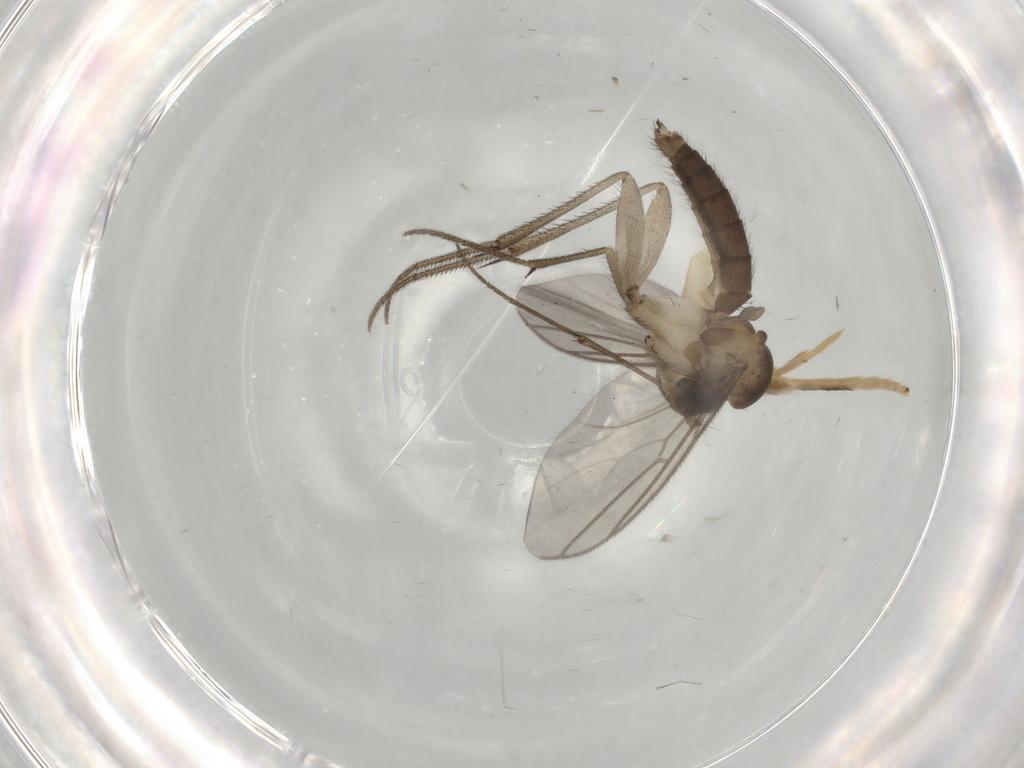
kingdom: Animalia
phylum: Arthropoda
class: Insecta
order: Diptera
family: Mycetophilidae
